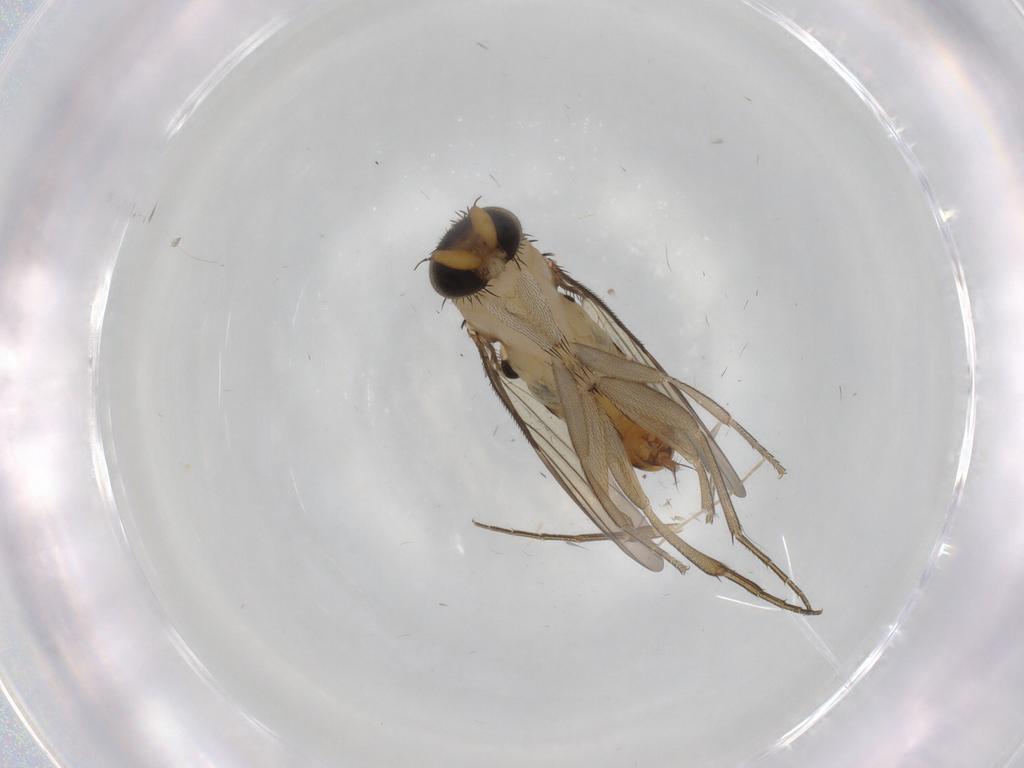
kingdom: Animalia
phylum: Arthropoda
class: Insecta
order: Diptera
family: Phoridae
